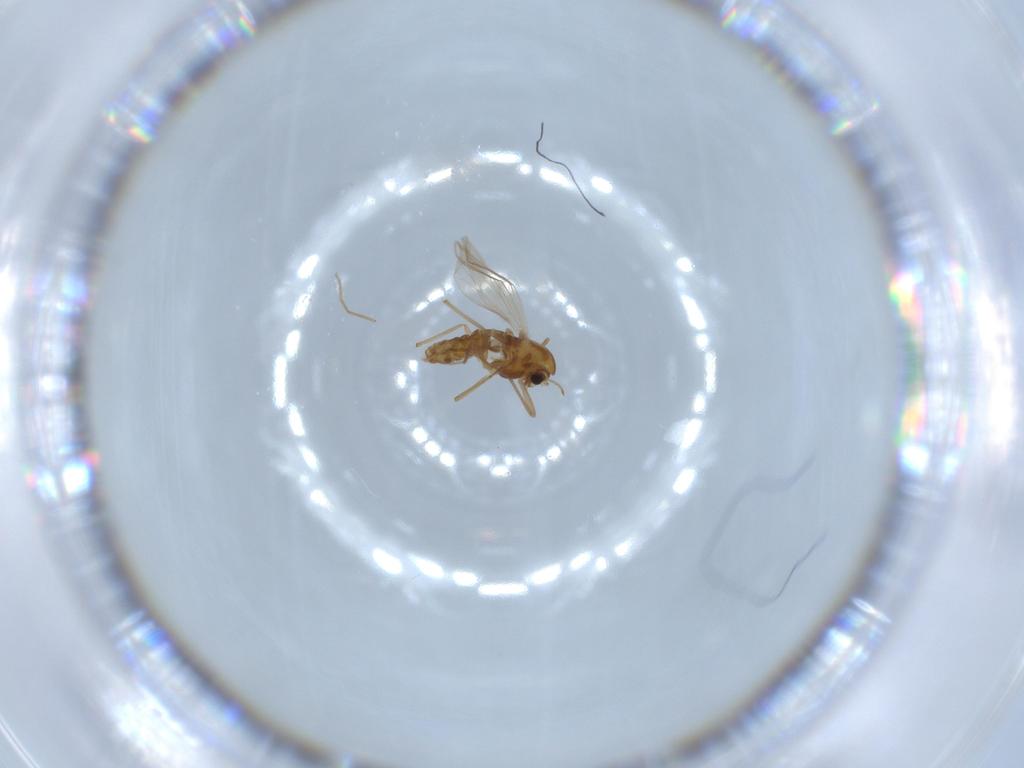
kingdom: Animalia
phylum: Arthropoda
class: Insecta
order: Diptera
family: Chironomidae
